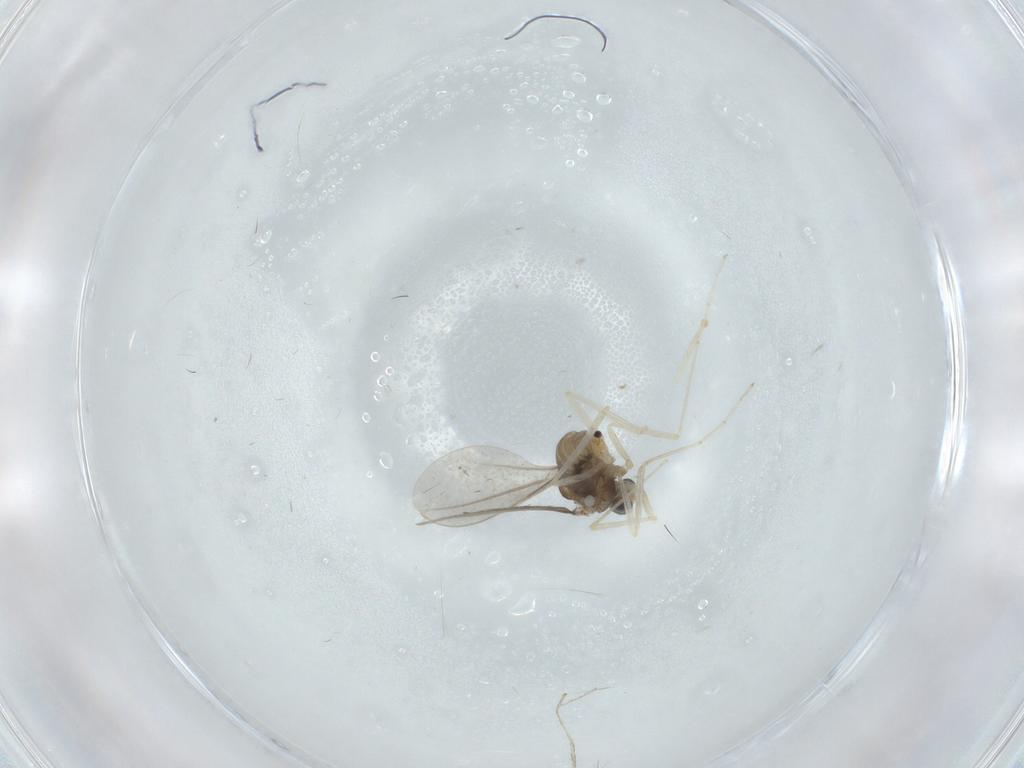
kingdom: Animalia
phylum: Arthropoda
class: Insecta
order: Diptera
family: Cecidomyiidae
